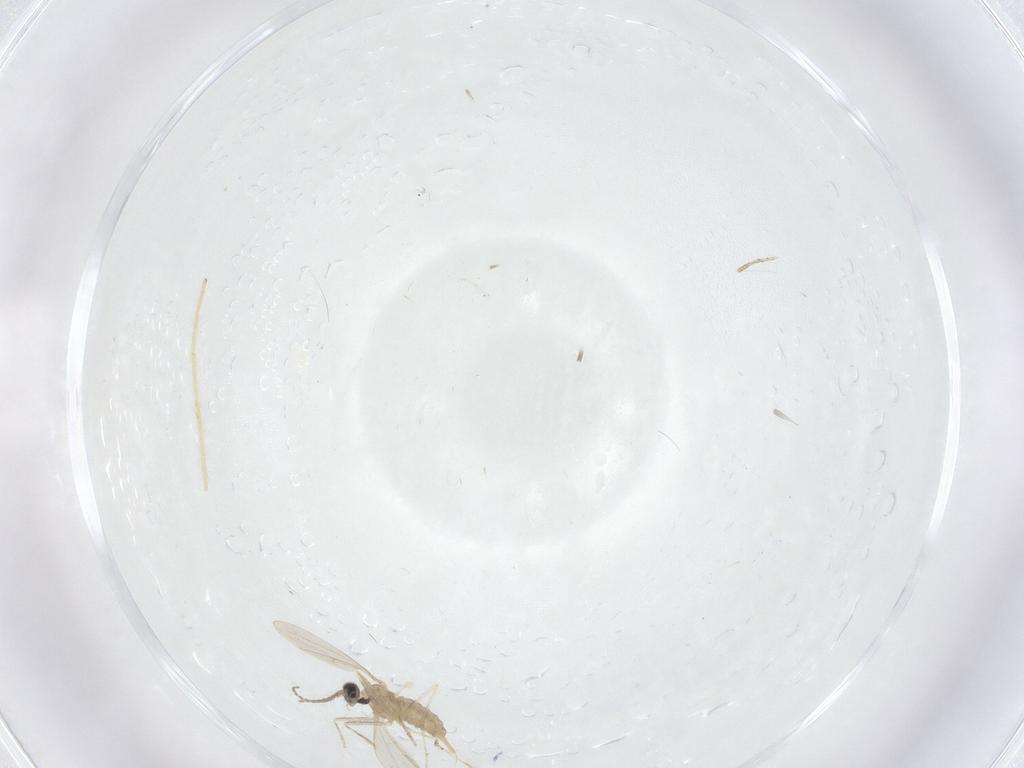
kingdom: Animalia
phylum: Arthropoda
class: Insecta
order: Diptera
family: Cecidomyiidae
